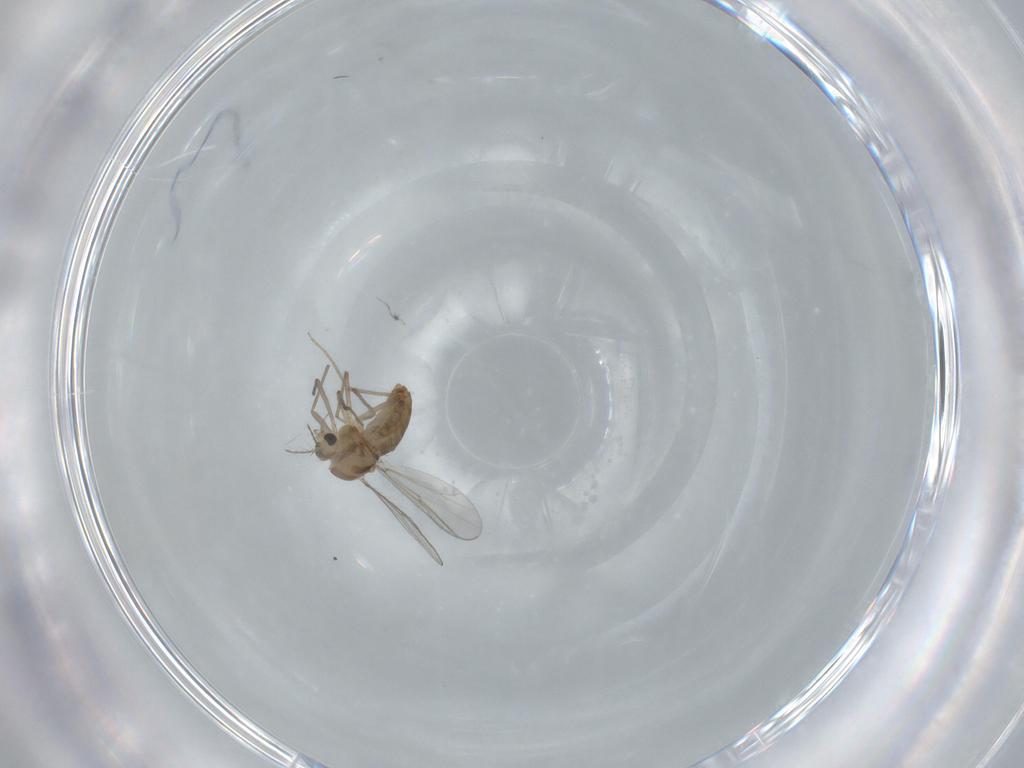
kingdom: Animalia
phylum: Arthropoda
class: Insecta
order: Diptera
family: Chironomidae
